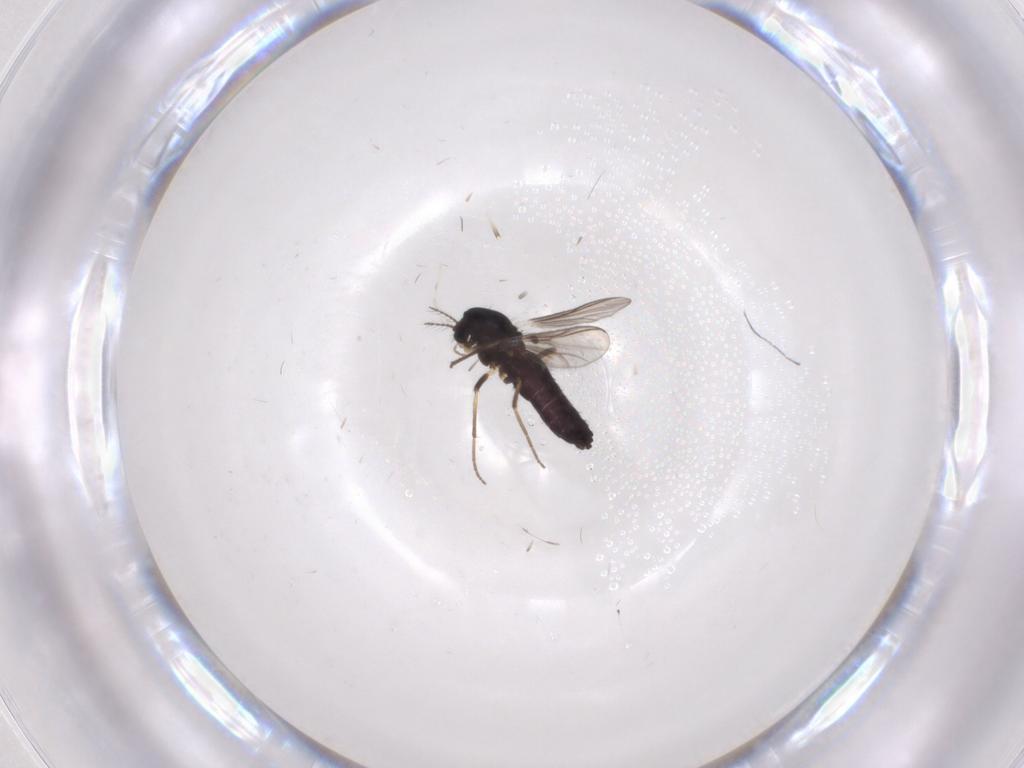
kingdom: Animalia
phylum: Arthropoda
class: Insecta
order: Diptera
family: Chironomidae
